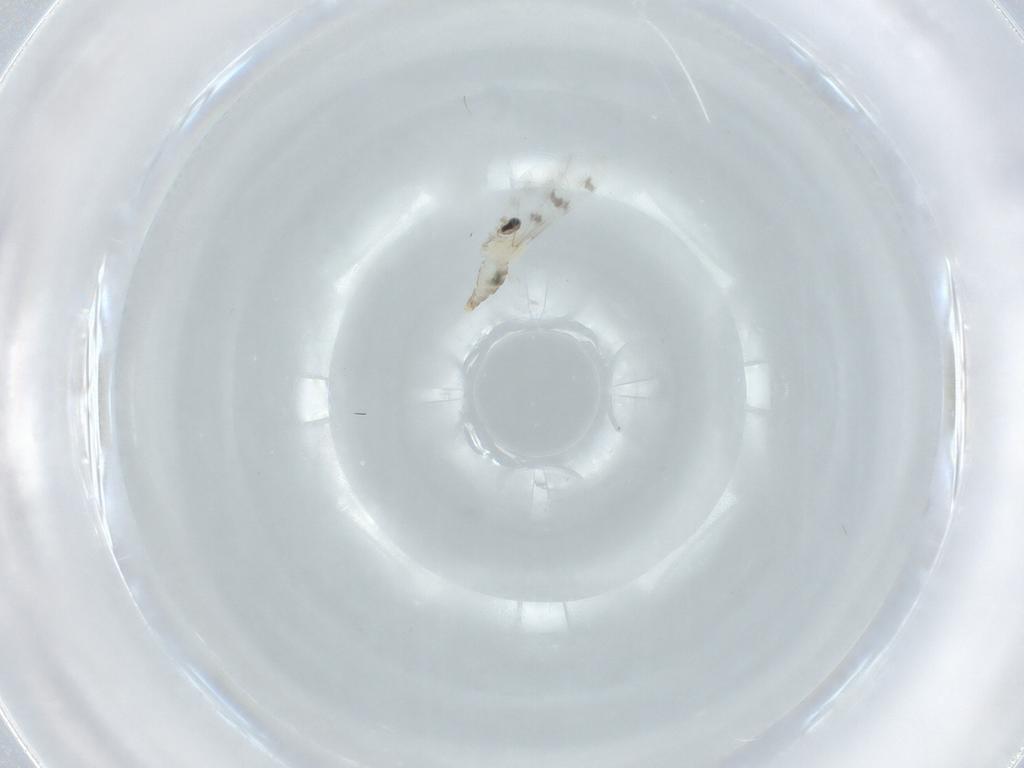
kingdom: Animalia
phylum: Arthropoda
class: Insecta
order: Diptera
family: Cecidomyiidae
